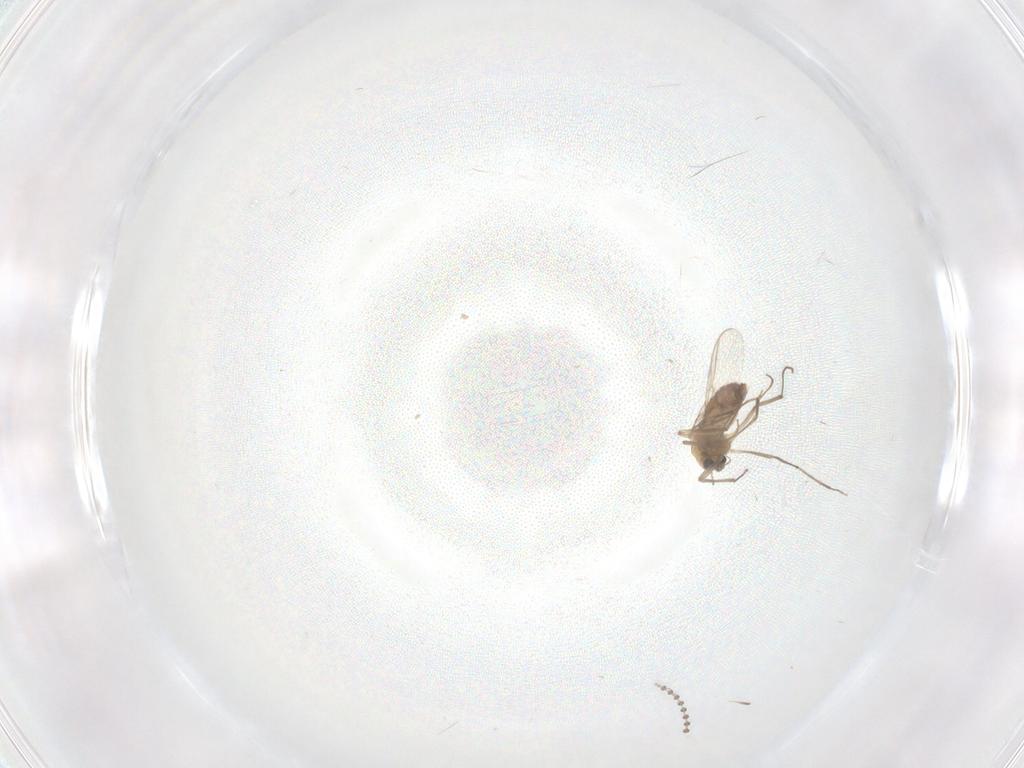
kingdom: Animalia
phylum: Arthropoda
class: Insecta
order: Diptera
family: Chironomidae
